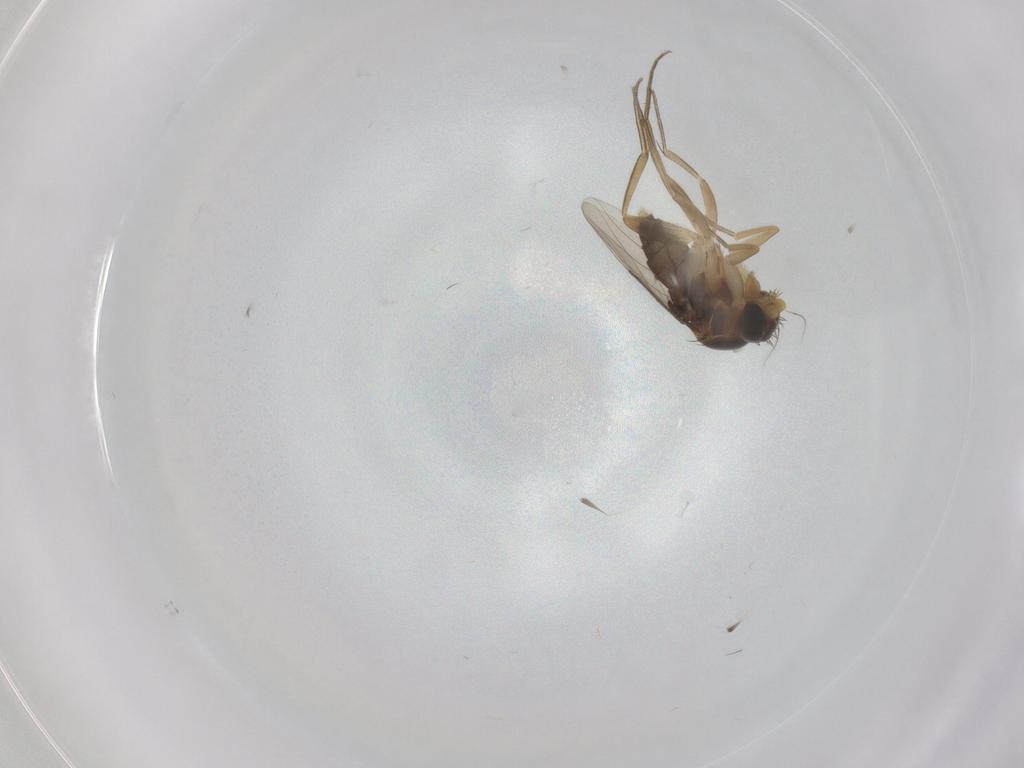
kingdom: Animalia
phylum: Arthropoda
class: Insecta
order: Diptera
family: Phoridae
